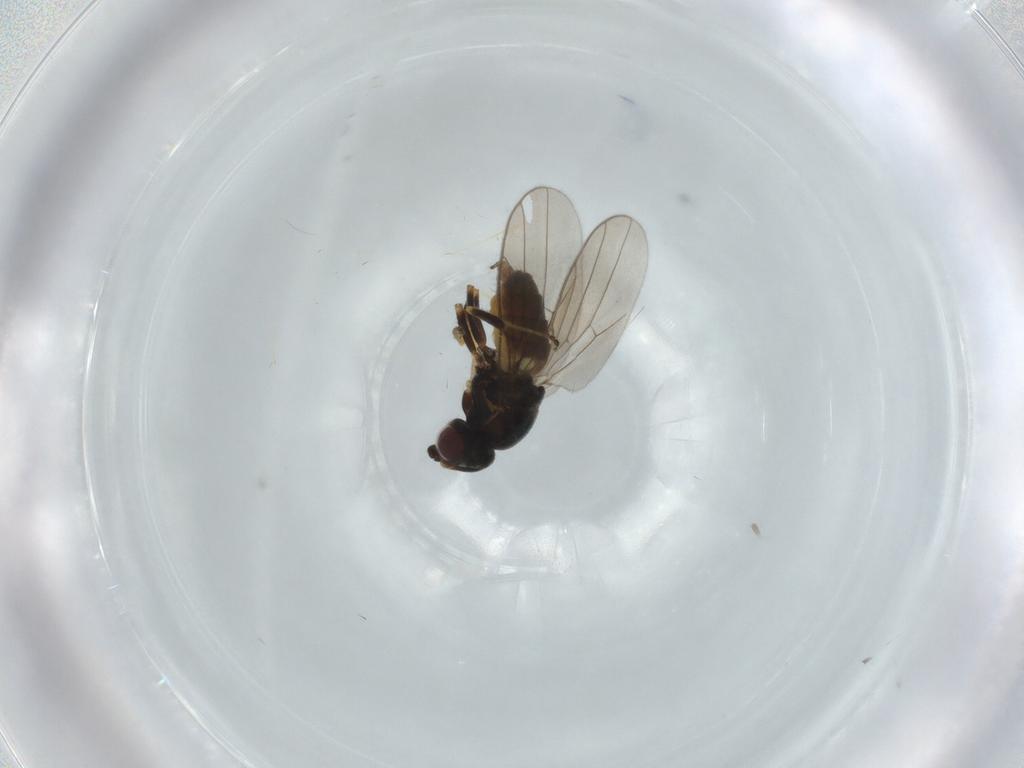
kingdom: Animalia
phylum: Arthropoda
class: Insecta
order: Diptera
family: Chloropidae
